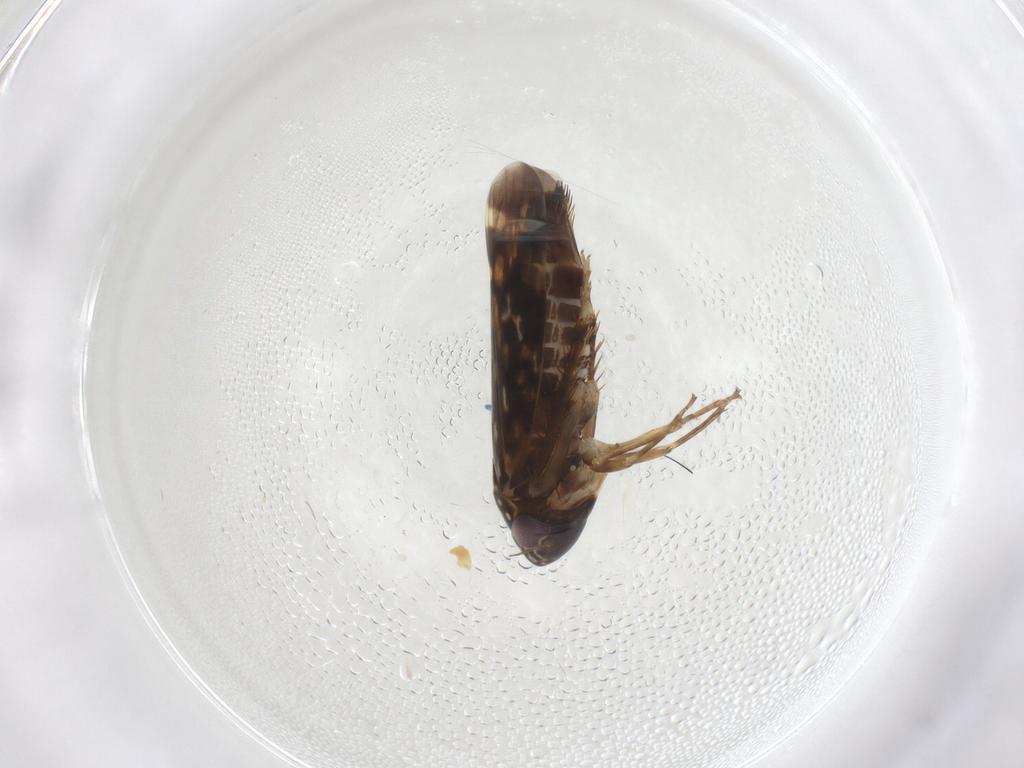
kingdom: Animalia
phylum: Arthropoda
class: Insecta
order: Hemiptera
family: Cicadellidae
